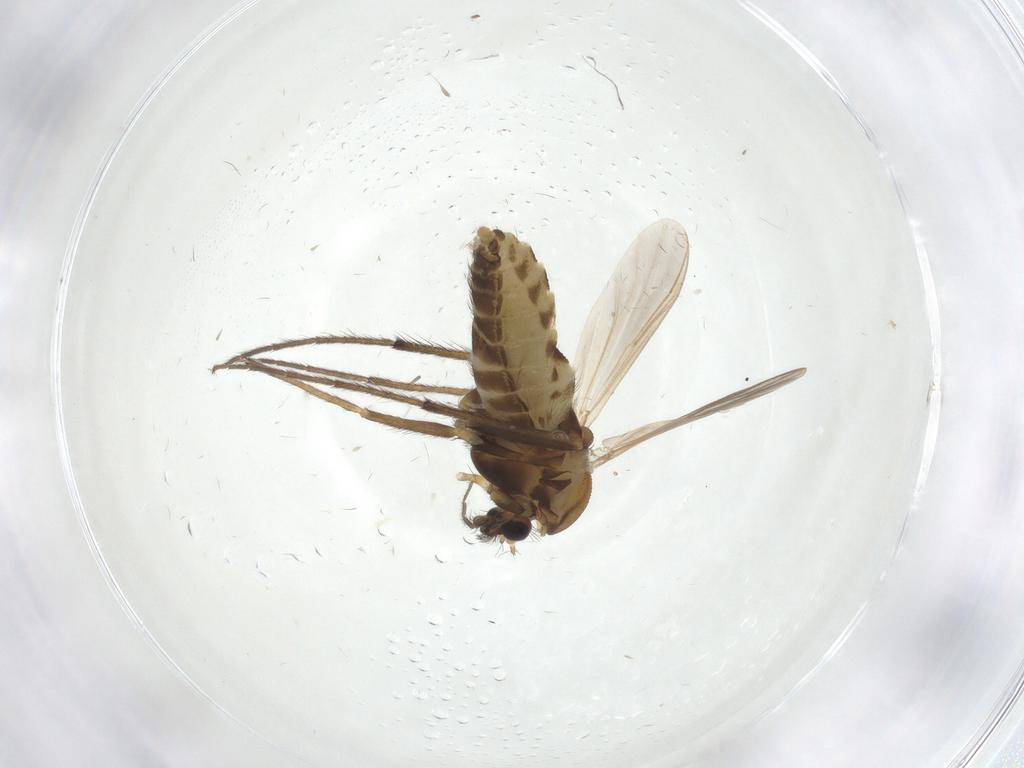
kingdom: Animalia
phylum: Arthropoda
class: Insecta
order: Diptera
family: Chironomidae
